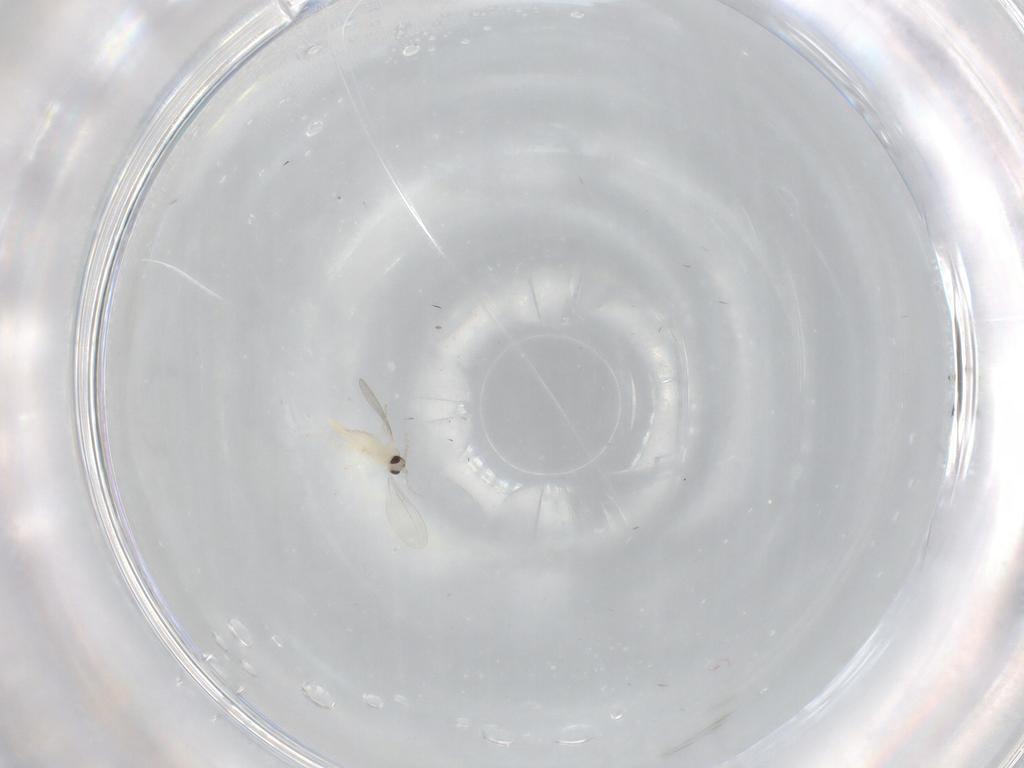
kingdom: Animalia
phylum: Arthropoda
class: Insecta
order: Diptera
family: Cecidomyiidae
